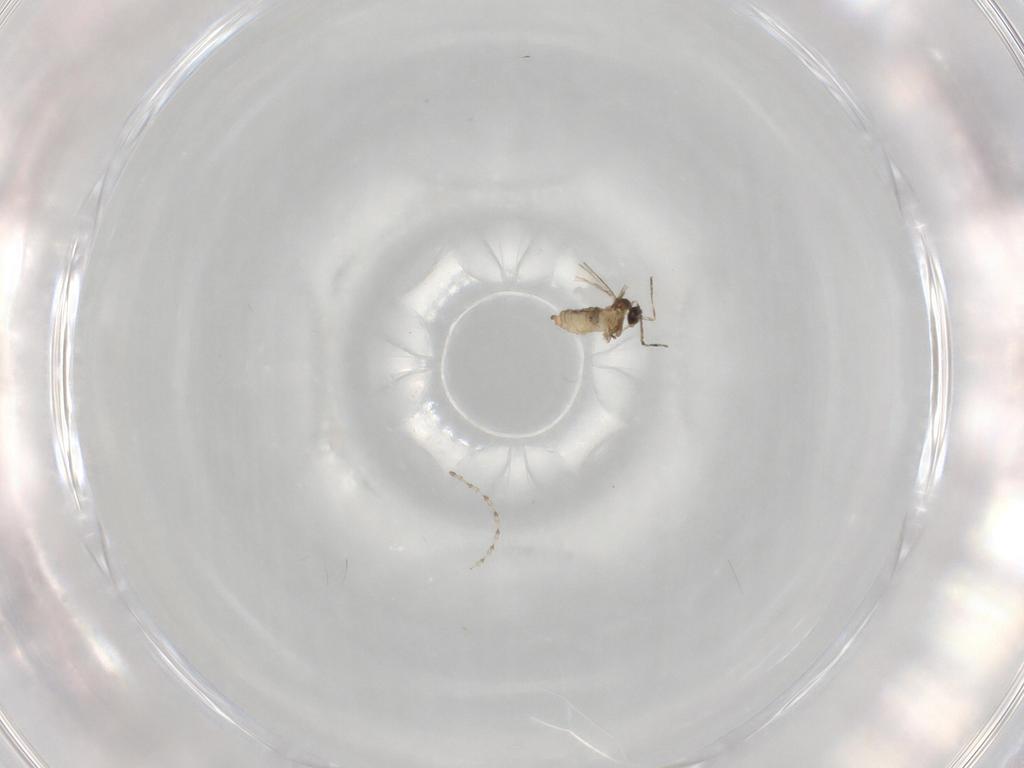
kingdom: Animalia
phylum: Arthropoda
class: Insecta
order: Diptera
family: Cecidomyiidae
